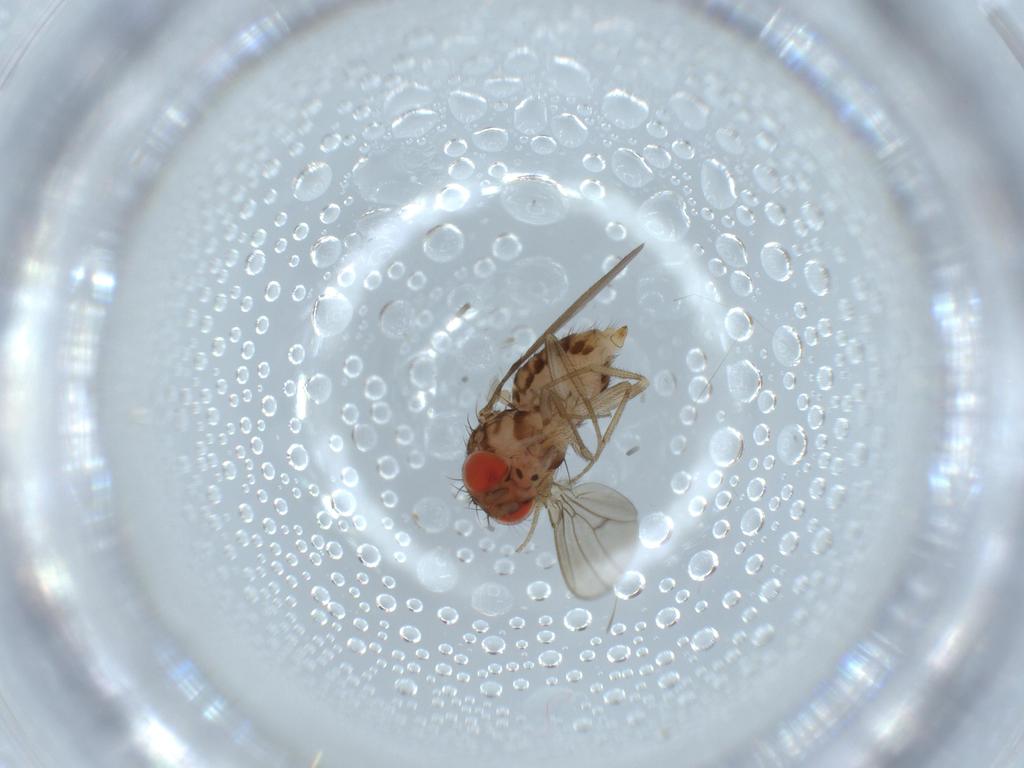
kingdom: Animalia
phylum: Arthropoda
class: Insecta
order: Diptera
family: Drosophilidae
